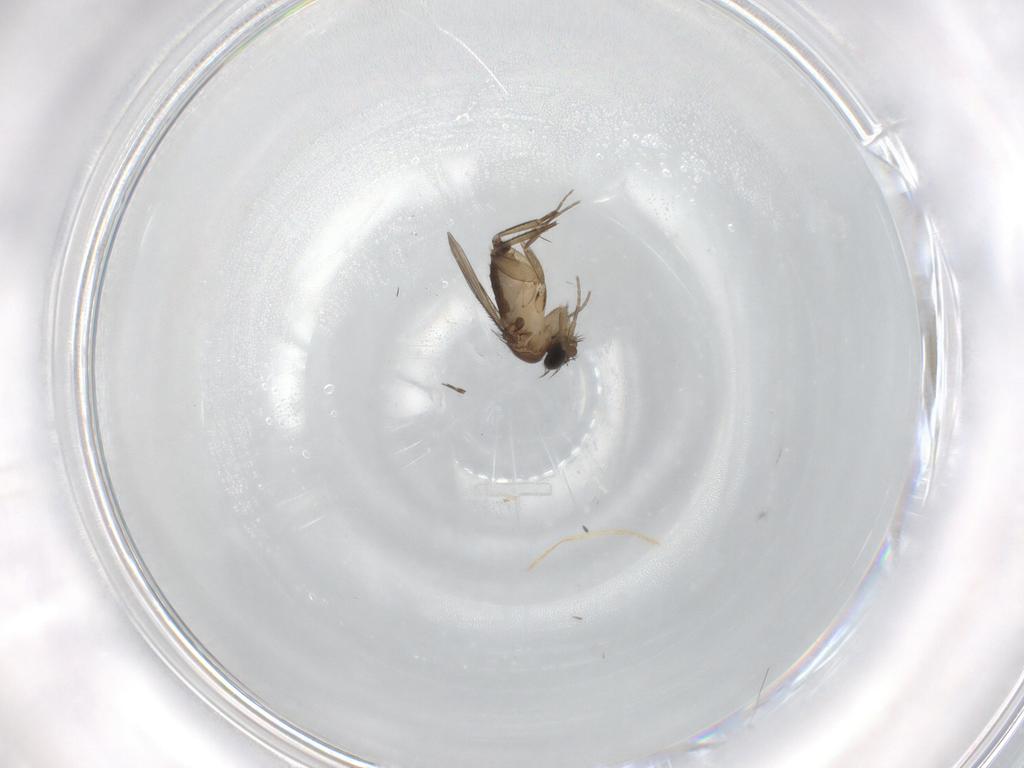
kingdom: Animalia
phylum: Arthropoda
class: Insecta
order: Diptera
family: Phoridae
